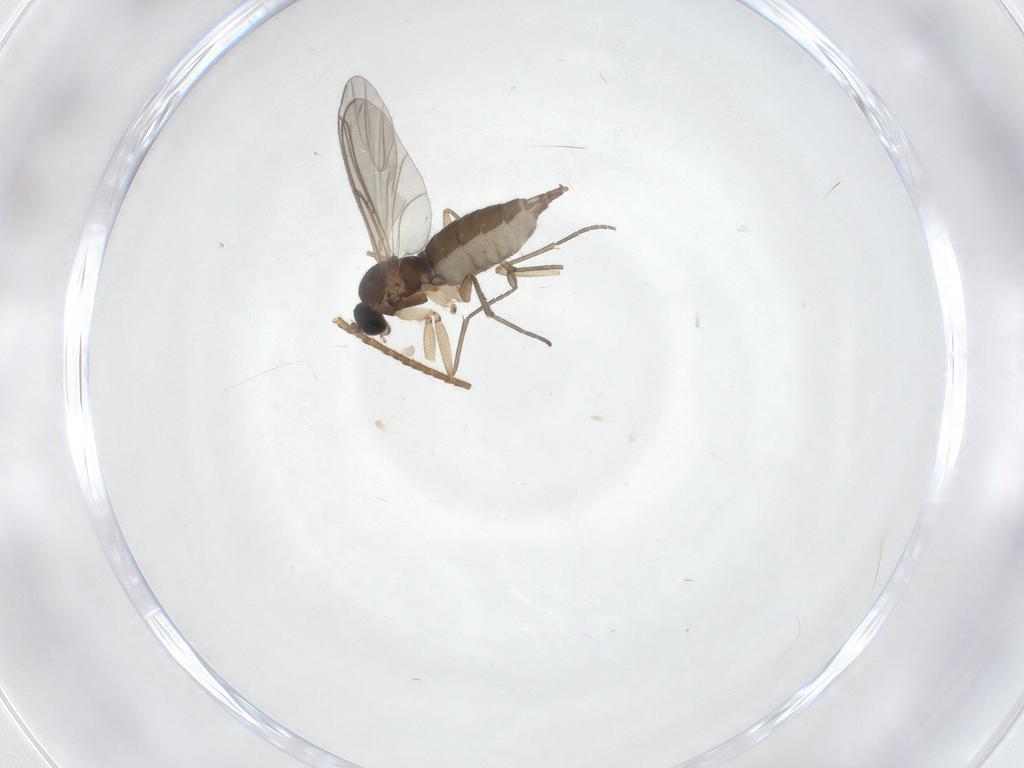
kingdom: Animalia
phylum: Arthropoda
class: Insecta
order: Diptera
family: Sciaridae
